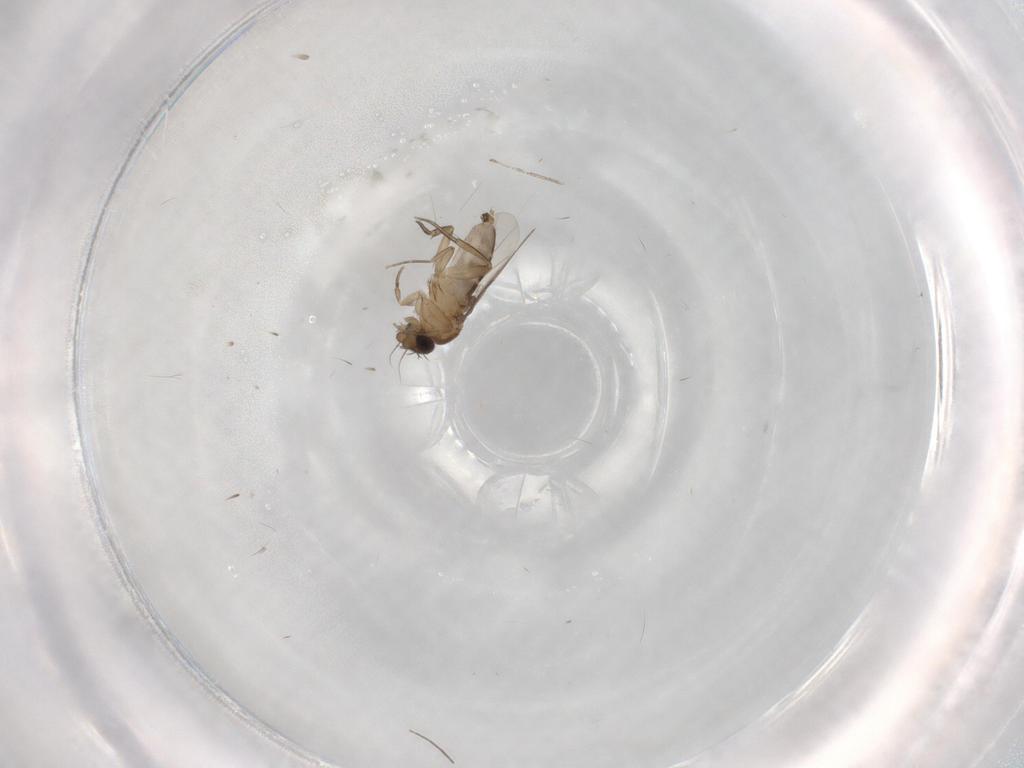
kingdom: Animalia
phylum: Arthropoda
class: Insecta
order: Diptera
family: Phoridae
